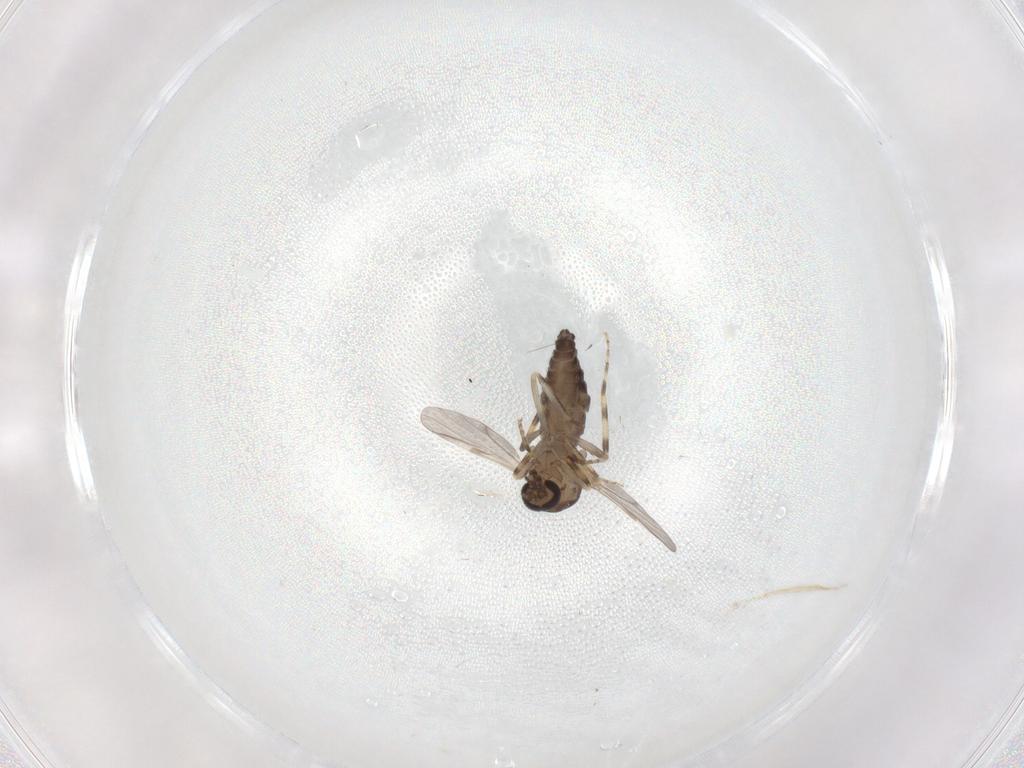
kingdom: Animalia
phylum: Arthropoda
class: Insecta
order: Diptera
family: Ceratopogonidae
